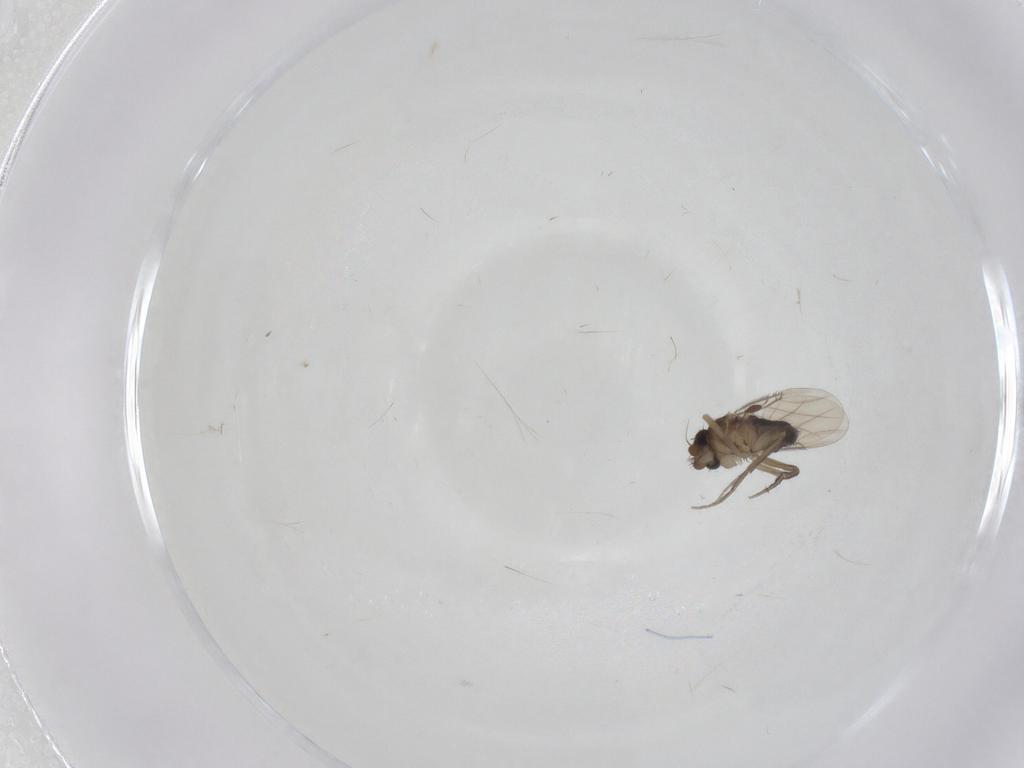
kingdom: Animalia
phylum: Arthropoda
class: Insecta
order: Diptera
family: Phoridae
